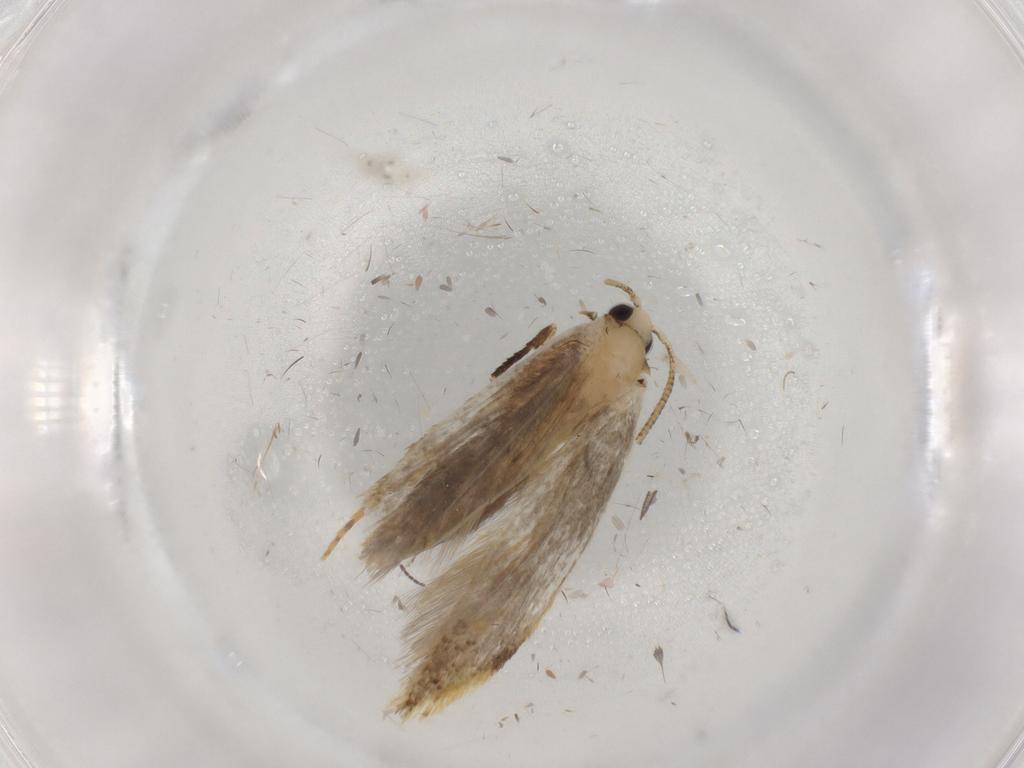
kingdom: Animalia
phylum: Arthropoda
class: Insecta
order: Lepidoptera
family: Tineidae
